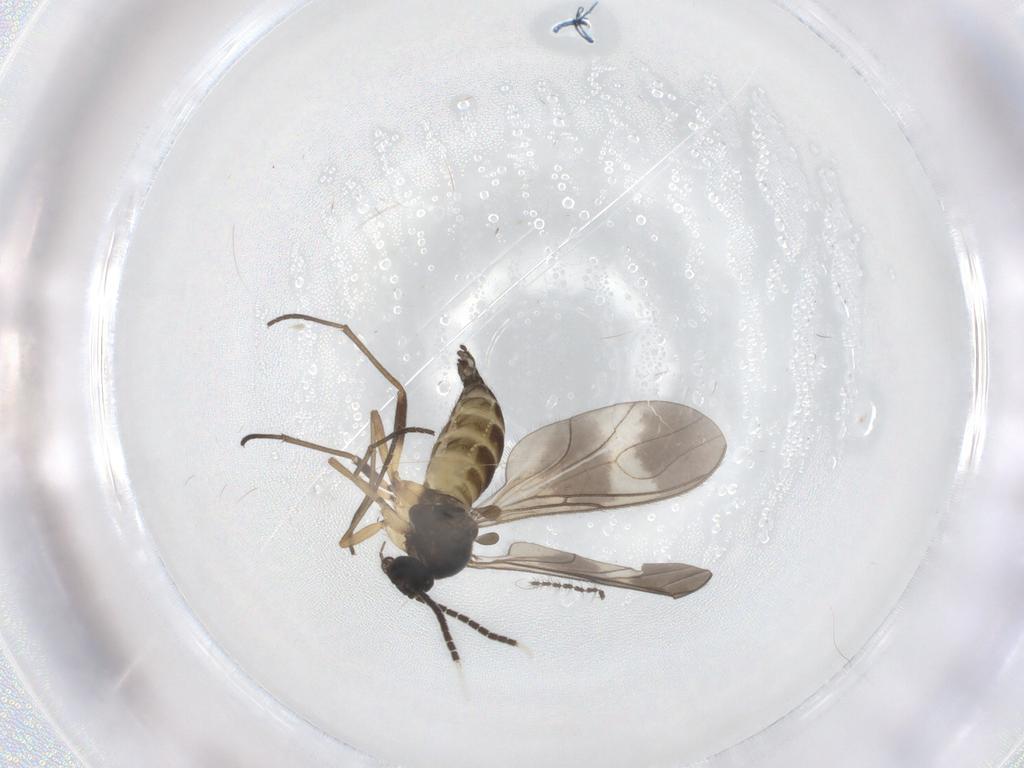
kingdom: Animalia
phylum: Arthropoda
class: Insecta
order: Diptera
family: Sciaridae
